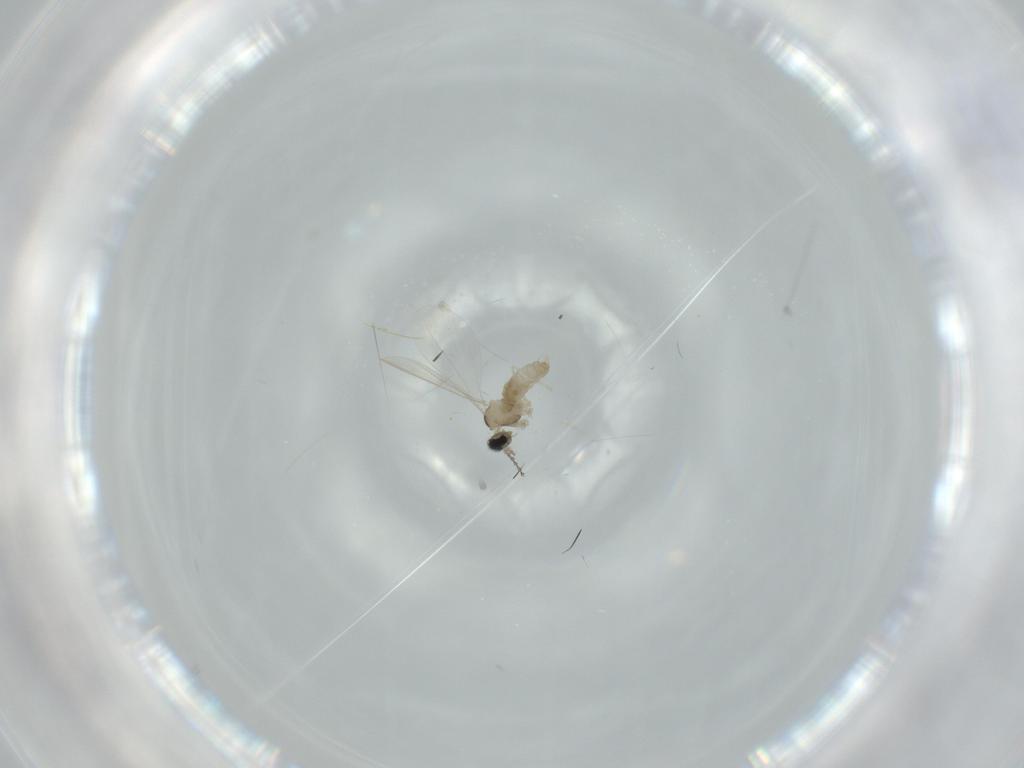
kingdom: Animalia
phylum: Arthropoda
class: Insecta
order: Diptera
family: Cecidomyiidae
